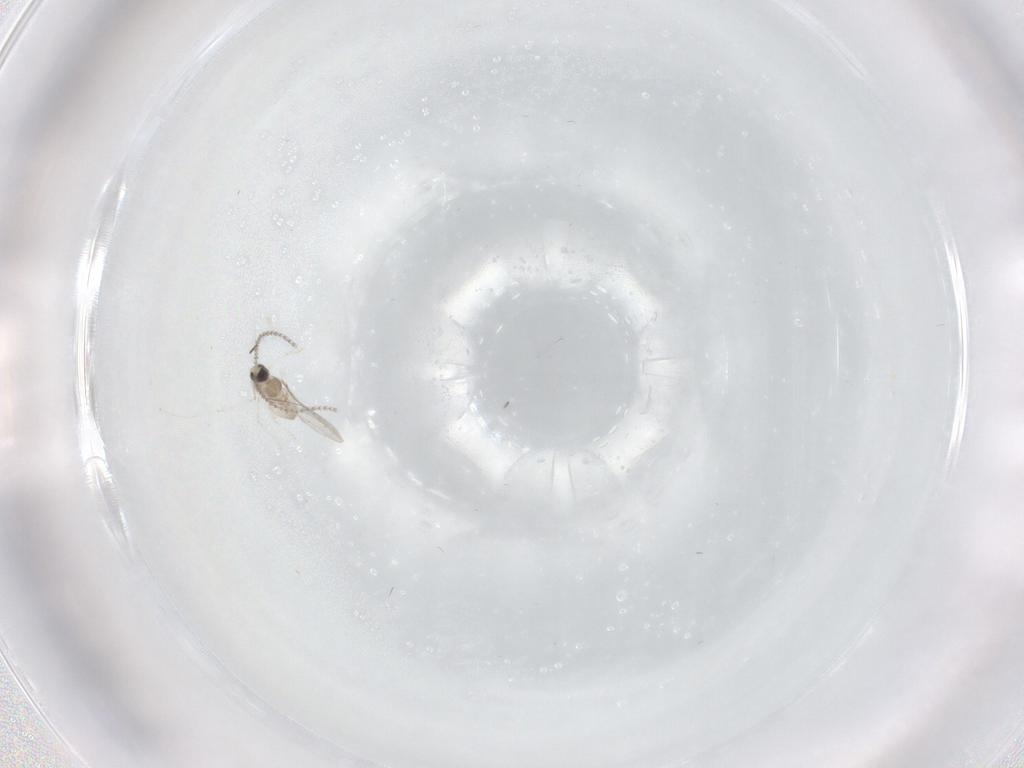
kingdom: Animalia
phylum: Arthropoda
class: Insecta
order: Diptera
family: Cecidomyiidae
